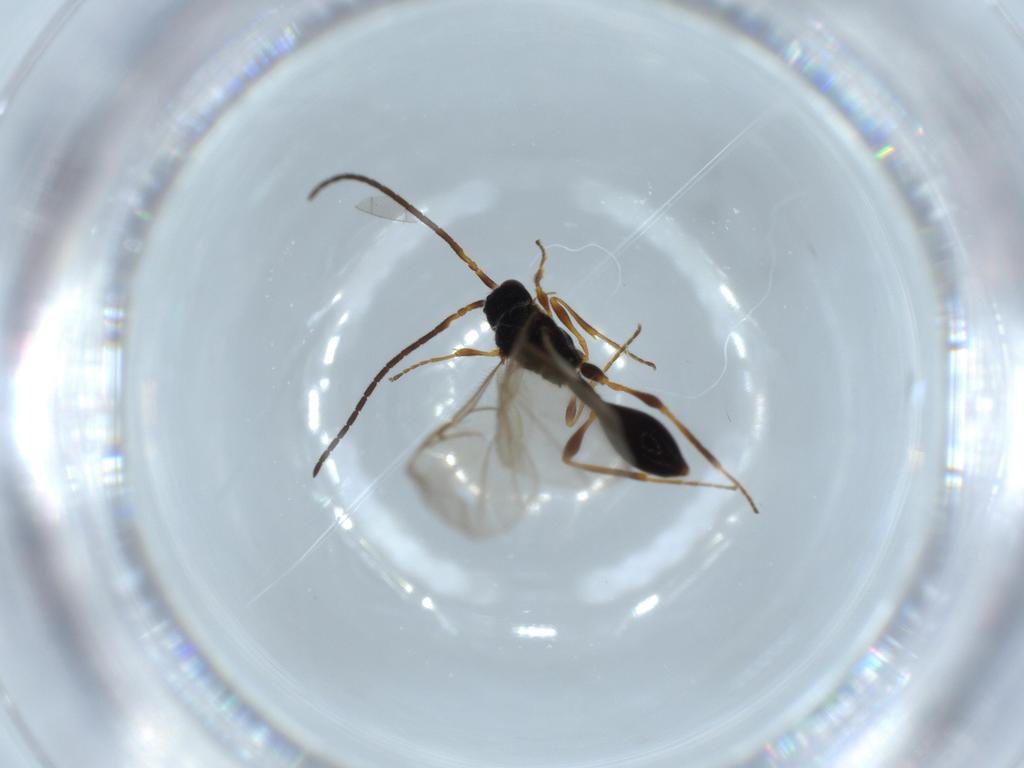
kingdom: Animalia
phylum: Arthropoda
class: Insecta
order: Hymenoptera
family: Diapriidae
